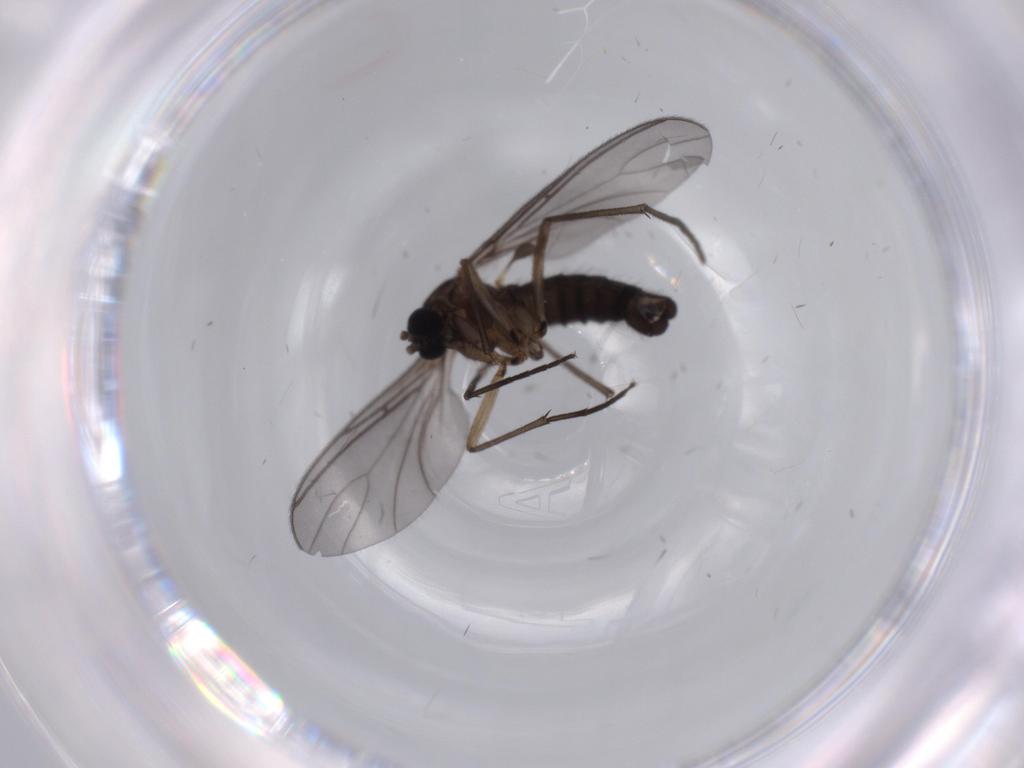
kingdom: Animalia
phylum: Arthropoda
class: Insecta
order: Diptera
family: Sciaridae
